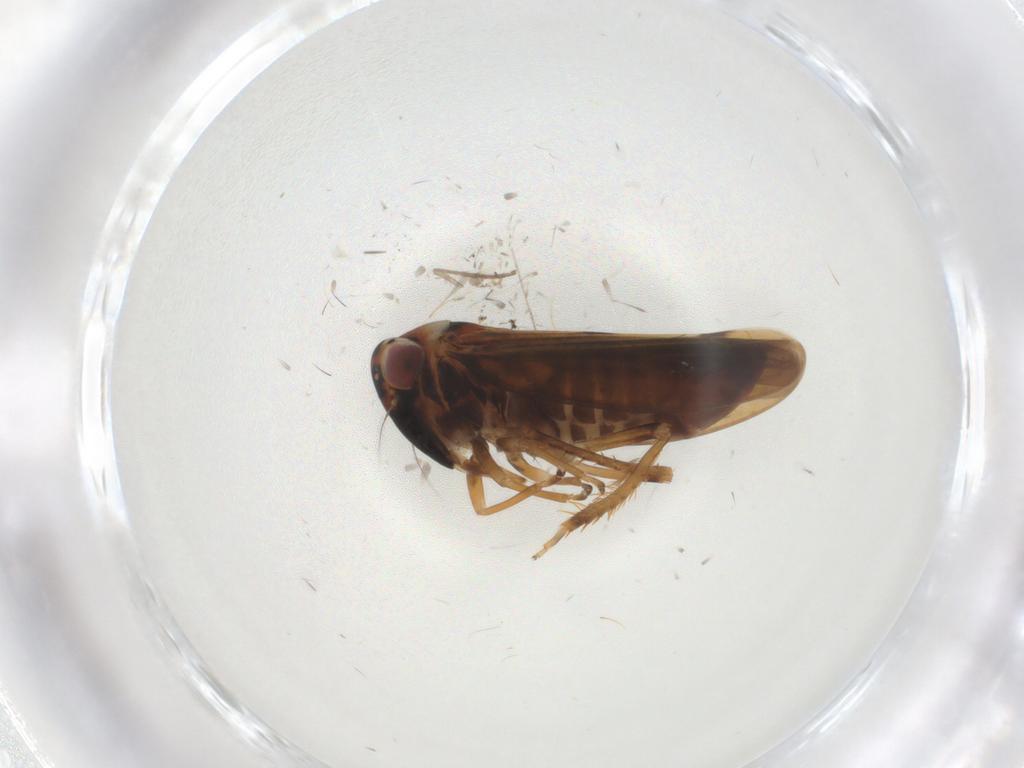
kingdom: Animalia
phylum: Arthropoda
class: Insecta
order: Hemiptera
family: Cicadellidae
